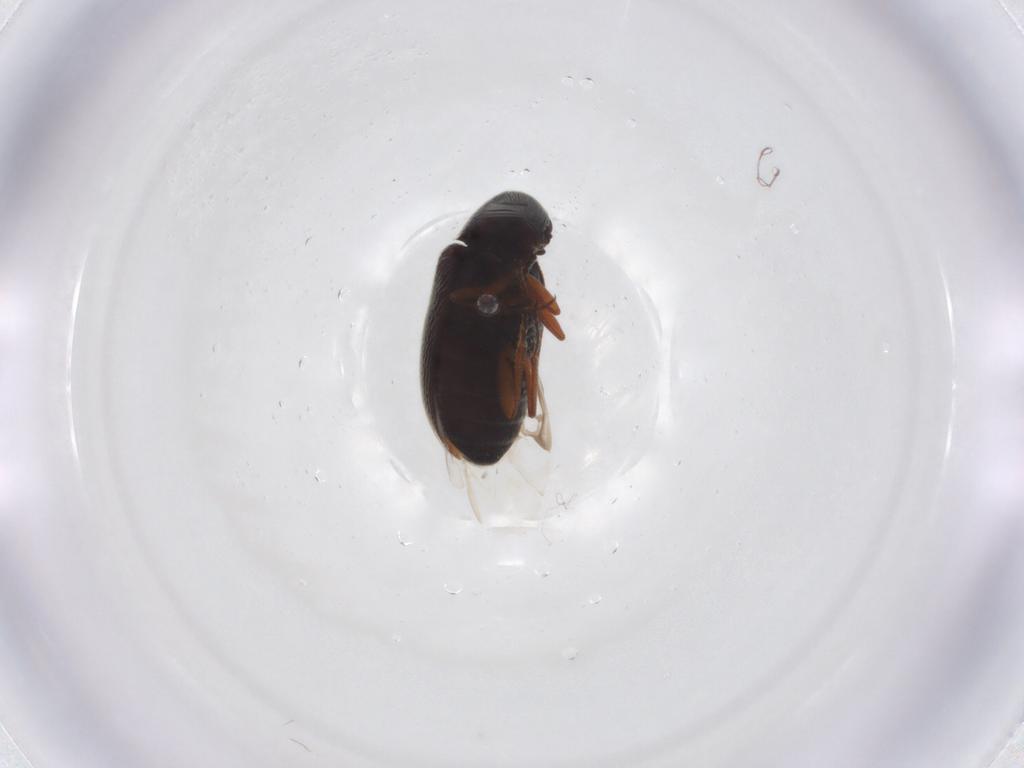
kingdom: Animalia
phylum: Arthropoda
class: Insecta
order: Coleoptera
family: Rhadalidae
